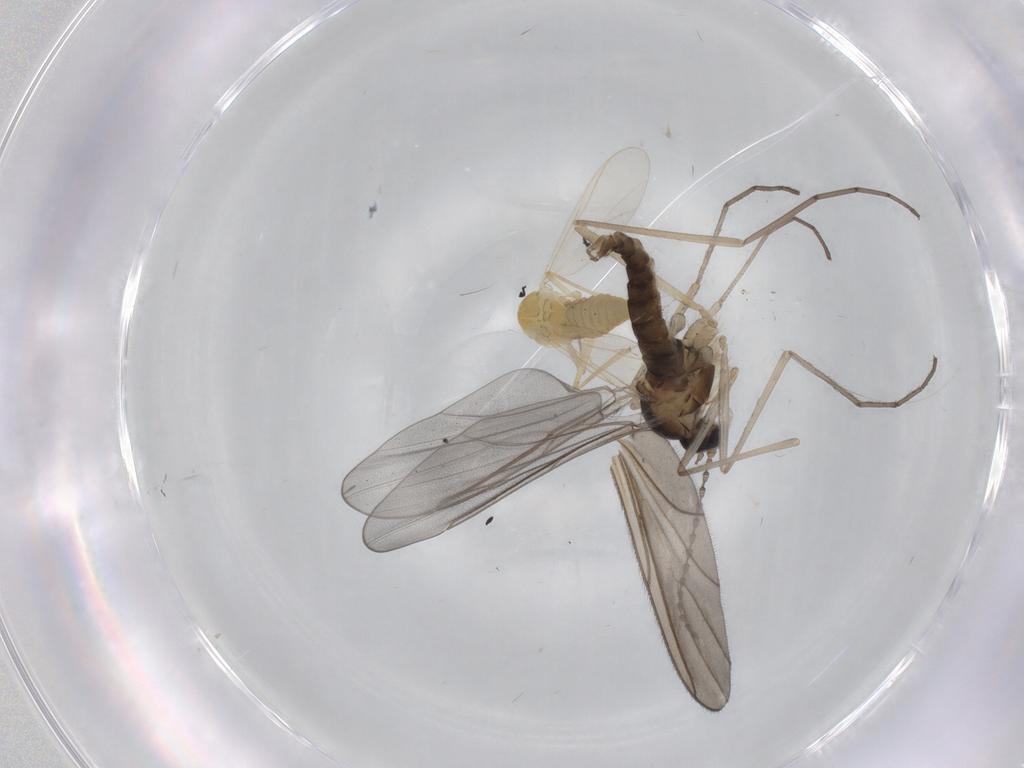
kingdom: Animalia
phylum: Arthropoda
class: Insecta
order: Diptera
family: Chironomidae
